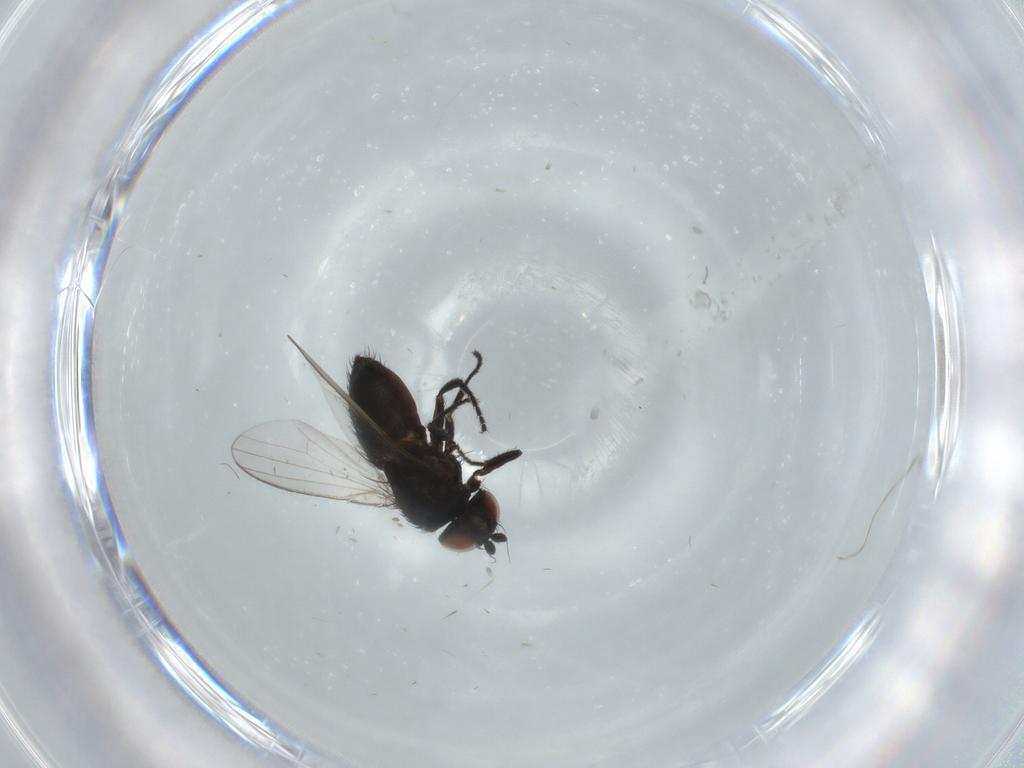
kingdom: Animalia
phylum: Arthropoda
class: Insecta
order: Diptera
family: Milichiidae
